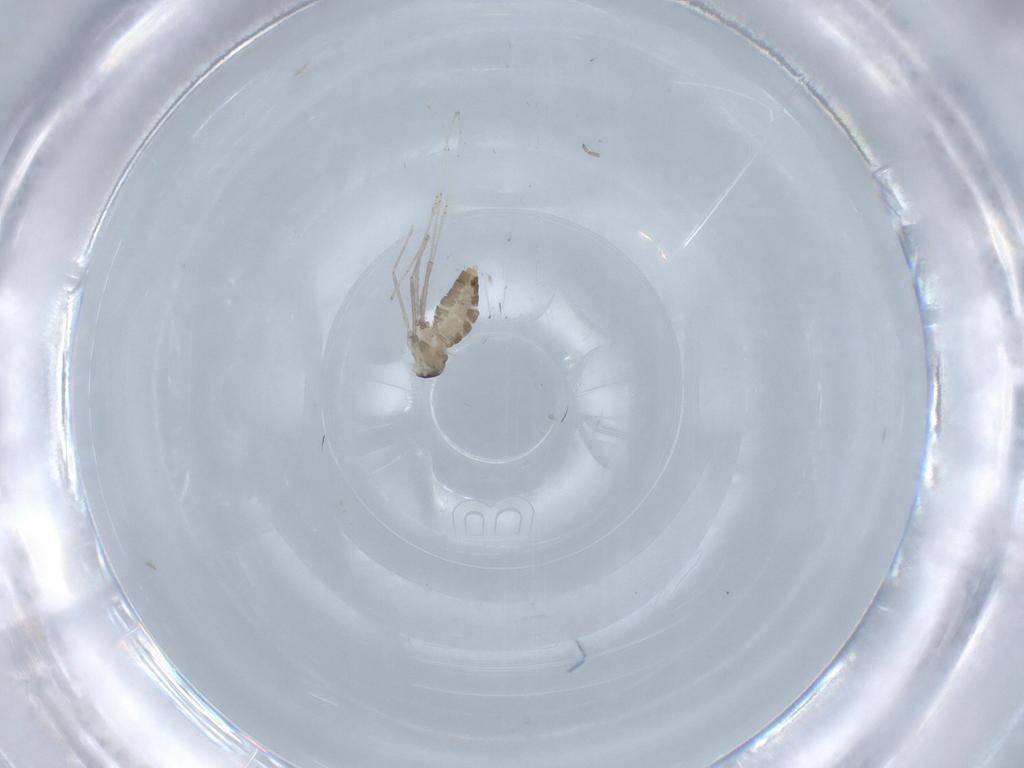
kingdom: Animalia
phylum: Arthropoda
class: Insecta
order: Diptera
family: Cecidomyiidae
